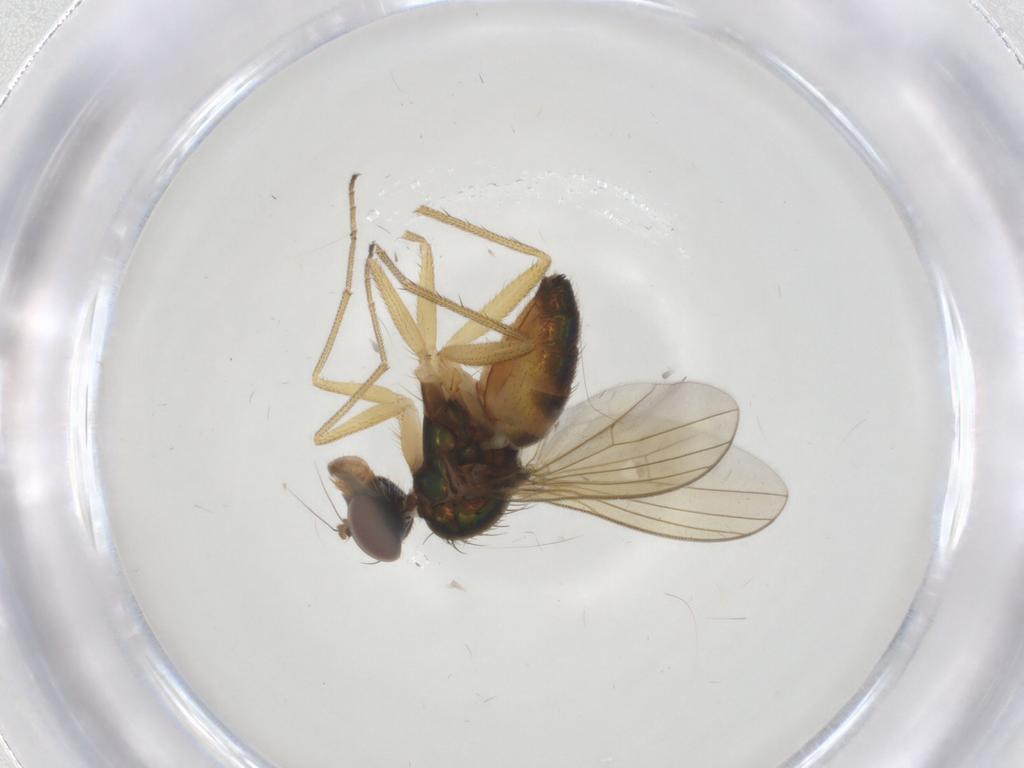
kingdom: Animalia
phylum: Arthropoda
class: Insecta
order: Diptera
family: Dolichopodidae
